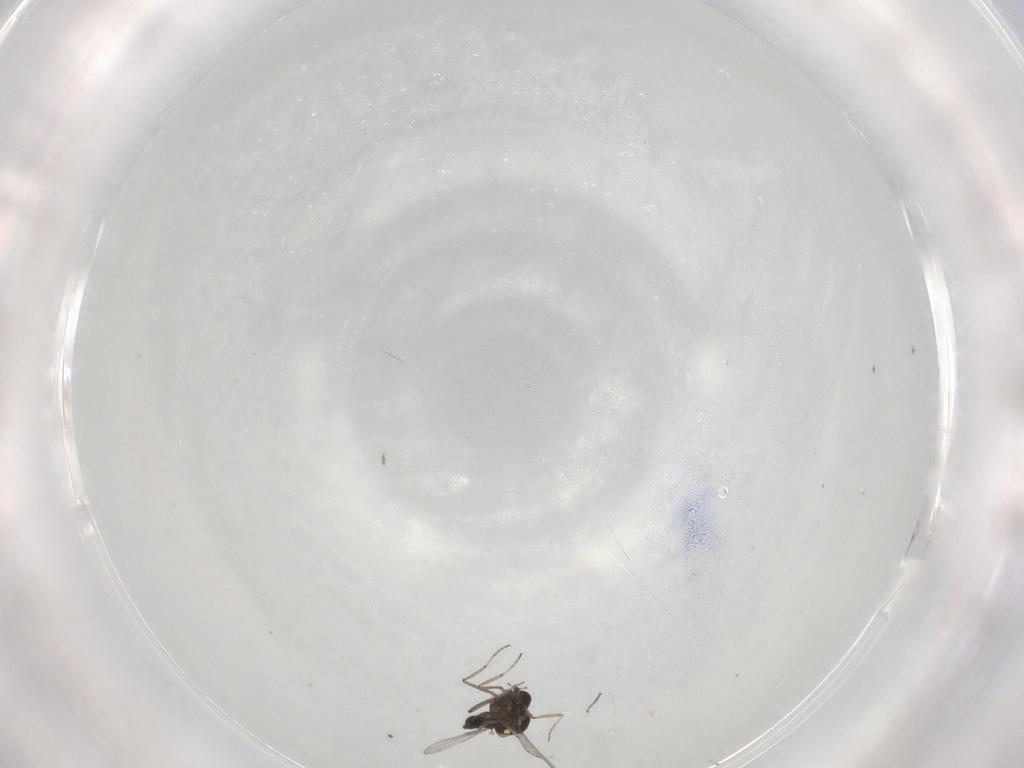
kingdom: Animalia
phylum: Arthropoda
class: Insecta
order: Diptera
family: Ceratopogonidae
